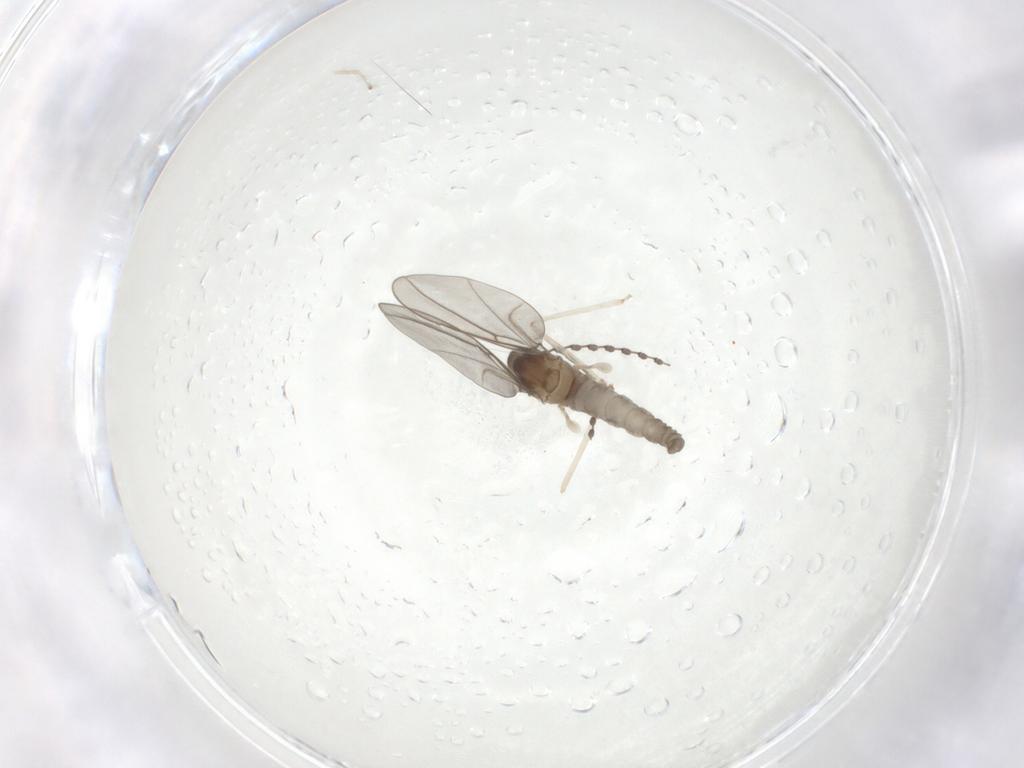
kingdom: Animalia
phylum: Arthropoda
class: Insecta
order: Diptera
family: Cecidomyiidae
